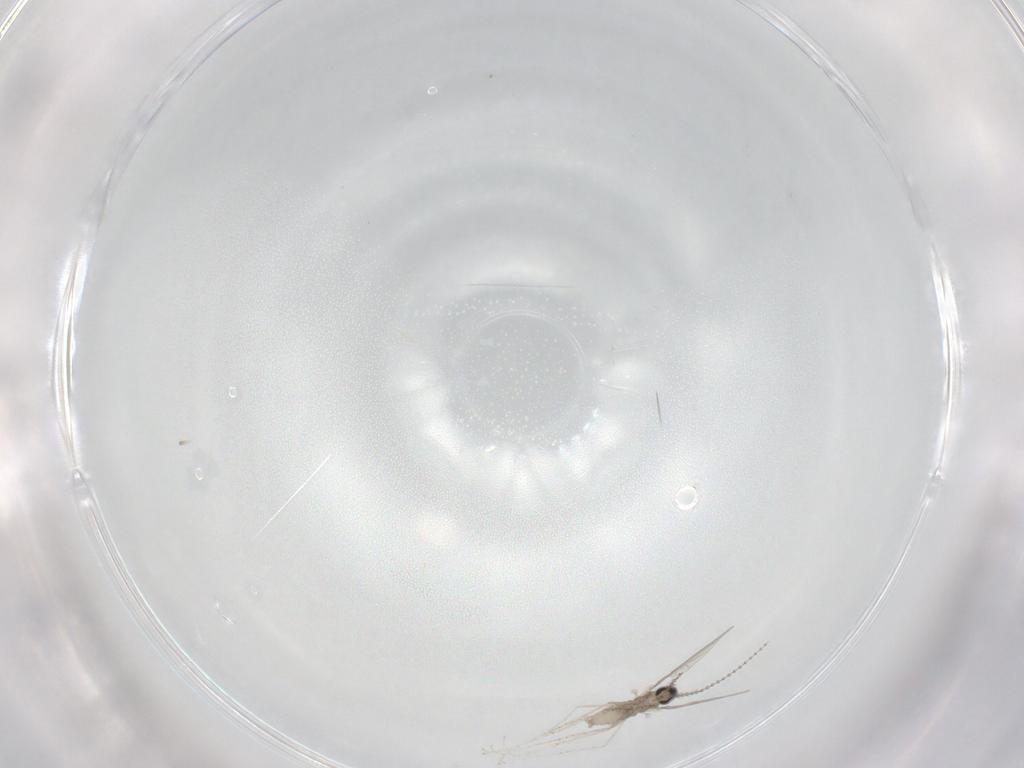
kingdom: Animalia
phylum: Arthropoda
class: Insecta
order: Diptera
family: Cecidomyiidae
